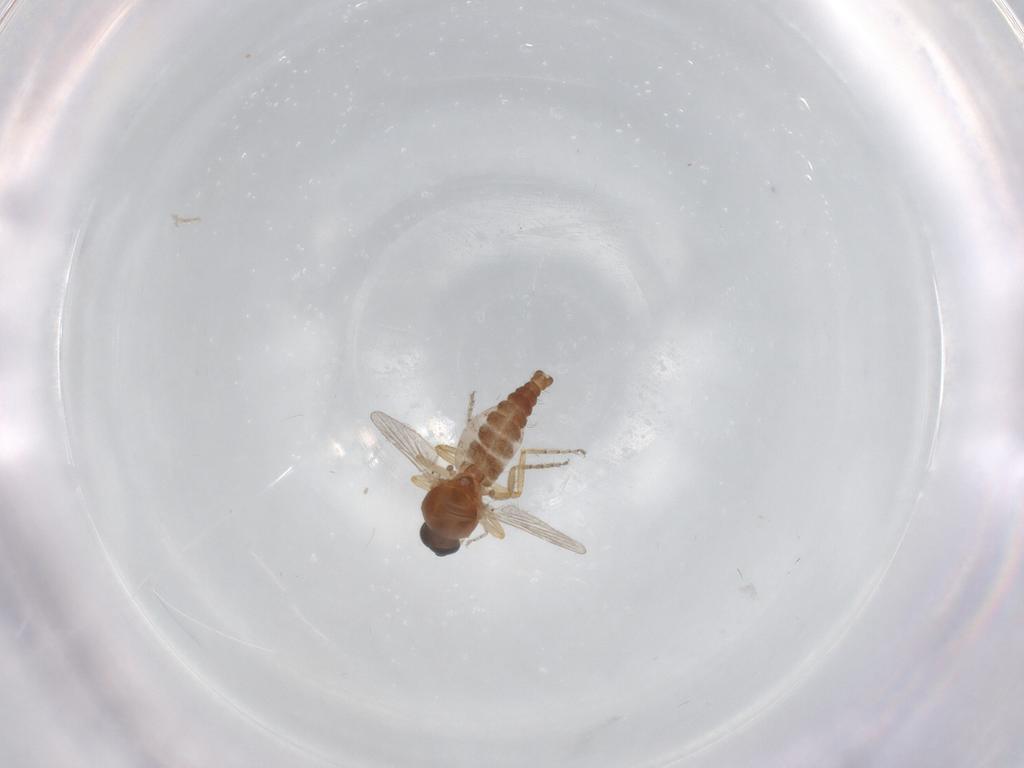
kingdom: Animalia
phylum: Arthropoda
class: Insecta
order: Diptera
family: Ceratopogonidae
